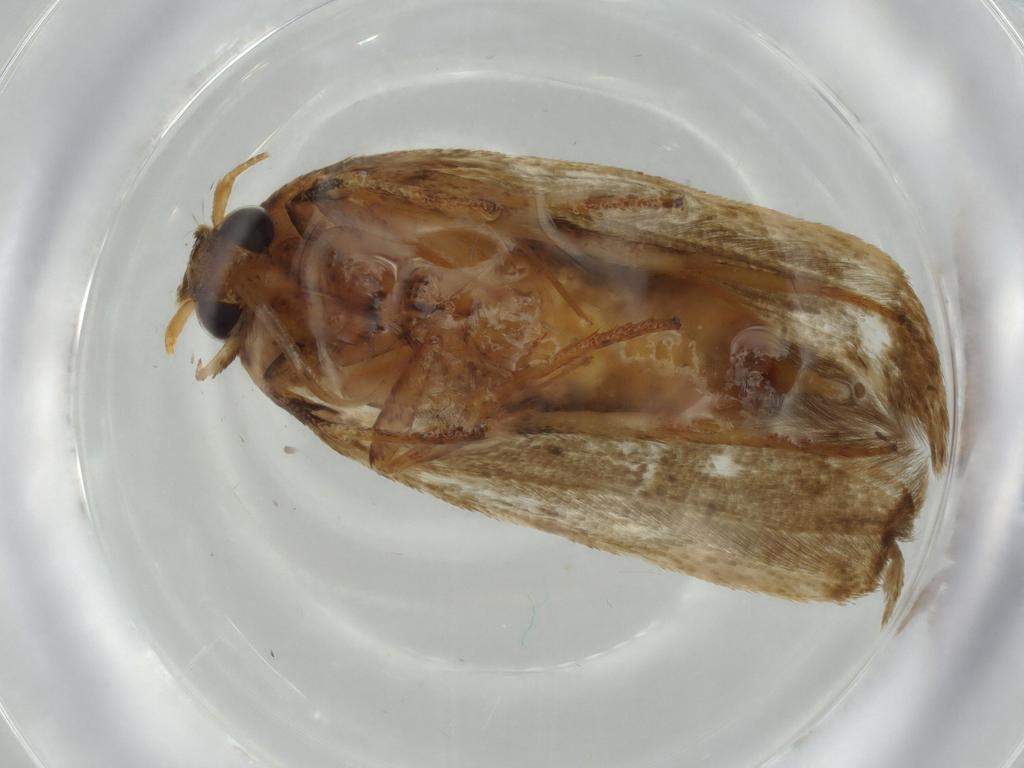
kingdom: Animalia
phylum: Arthropoda
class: Insecta
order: Lepidoptera
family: Blastobasidae
